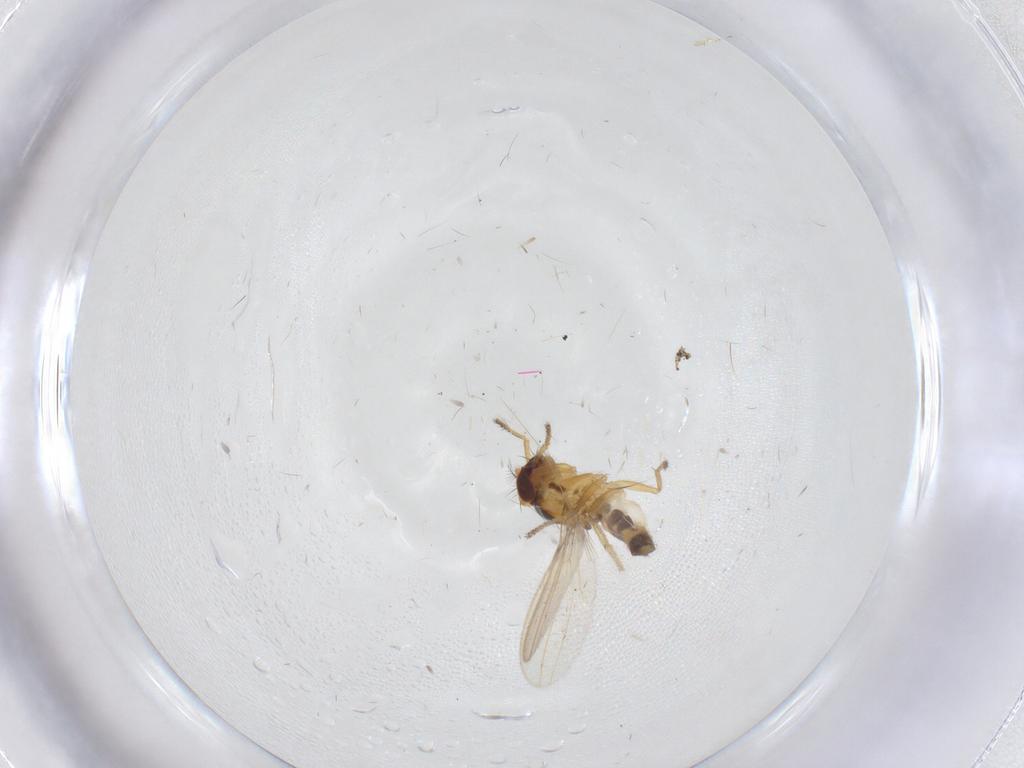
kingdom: Animalia
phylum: Arthropoda
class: Insecta
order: Diptera
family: Periscelididae
